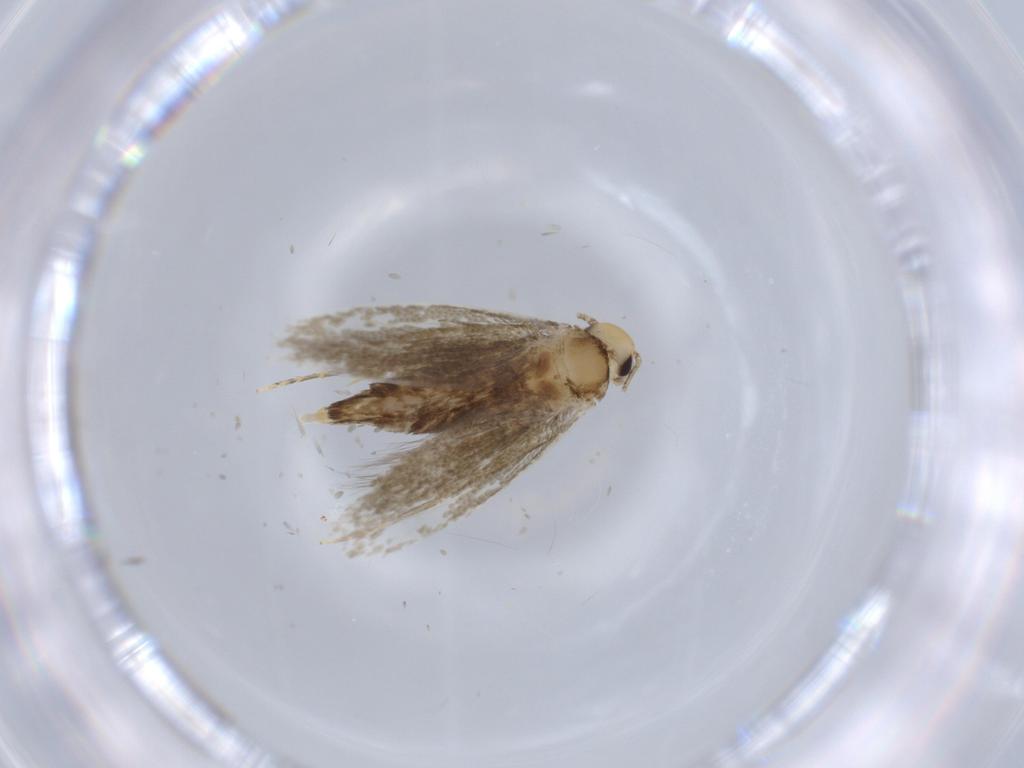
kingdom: Animalia
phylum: Arthropoda
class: Insecta
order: Lepidoptera
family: Tineidae
